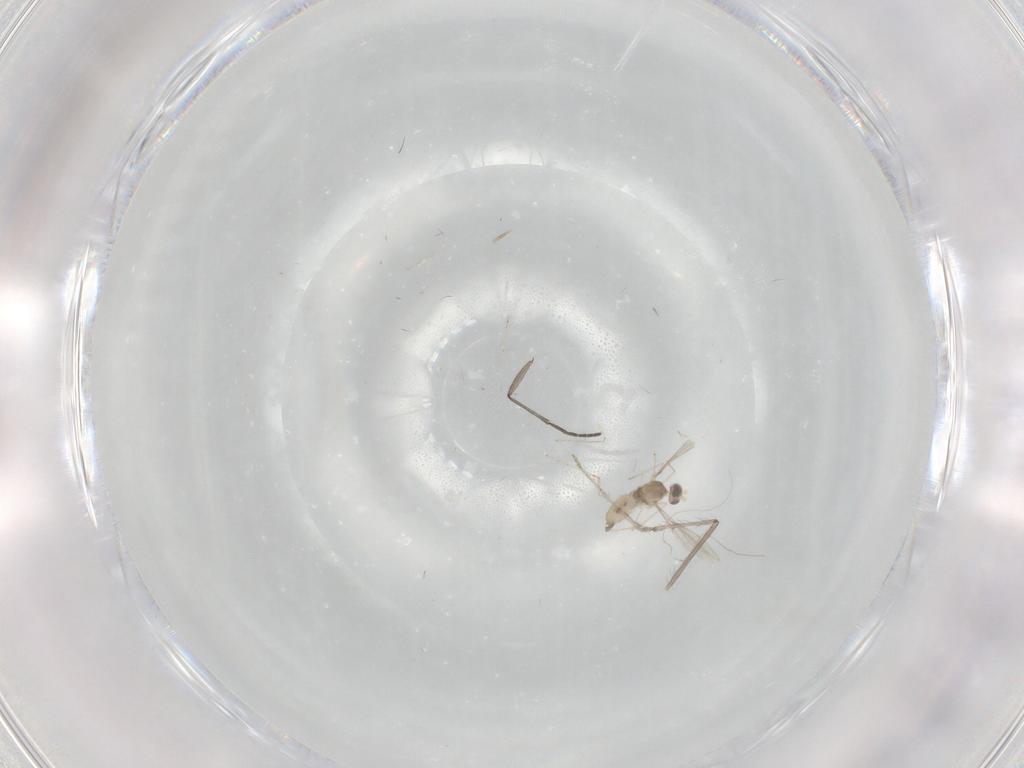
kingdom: Animalia
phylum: Arthropoda
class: Insecta
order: Diptera
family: Cecidomyiidae
